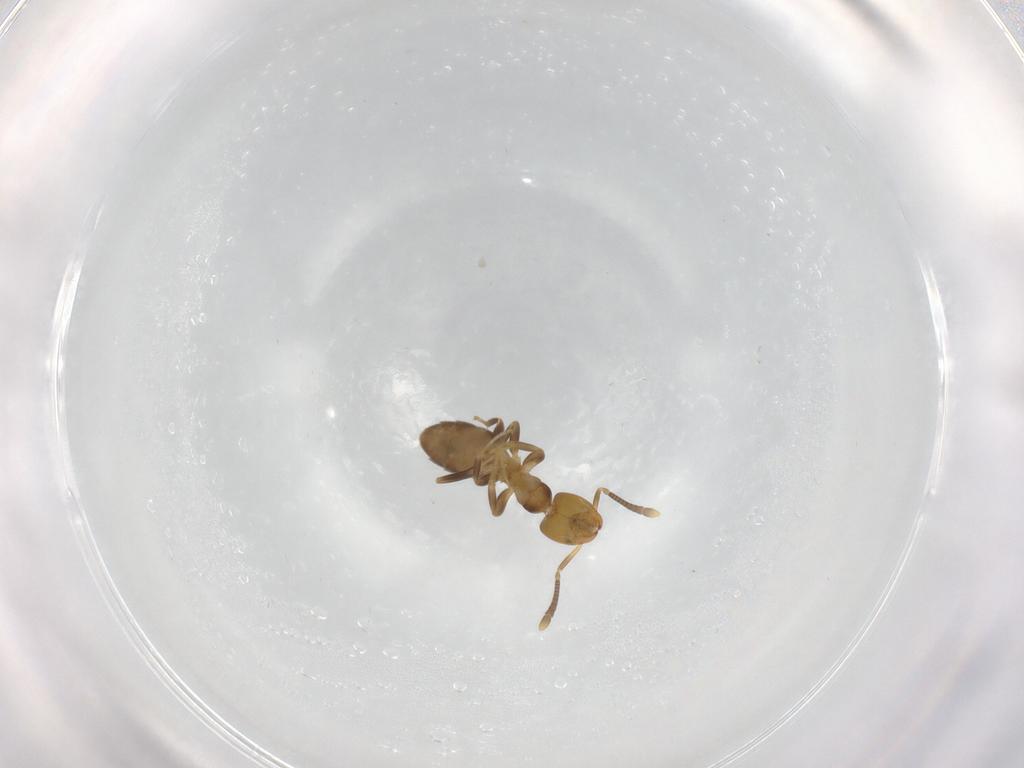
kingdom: Animalia
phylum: Arthropoda
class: Insecta
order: Hymenoptera
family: Formicidae
